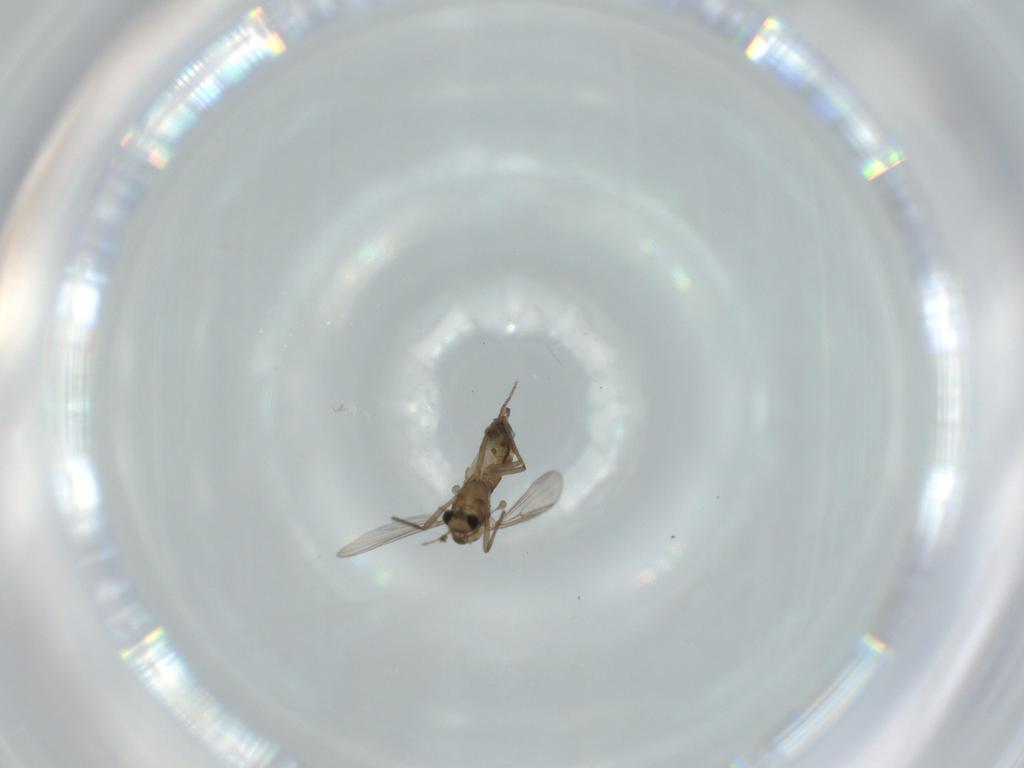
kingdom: Animalia
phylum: Arthropoda
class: Insecta
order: Diptera
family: Chironomidae
